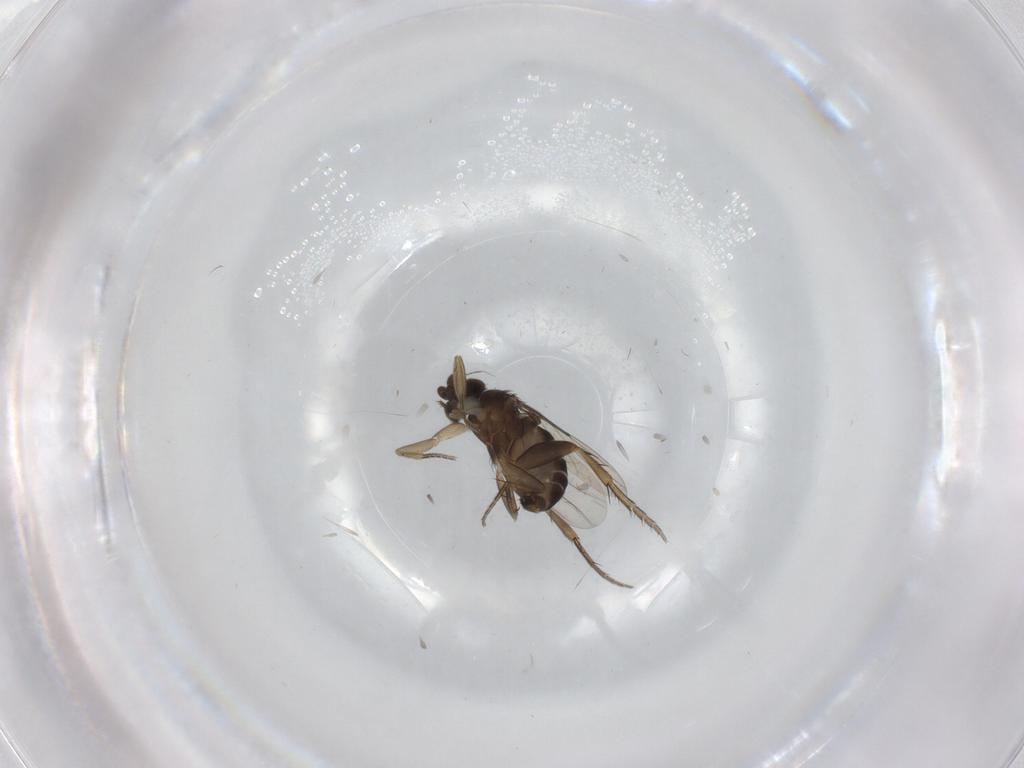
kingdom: Animalia
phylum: Arthropoda
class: Insecta
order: Diptera
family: Phoridae
